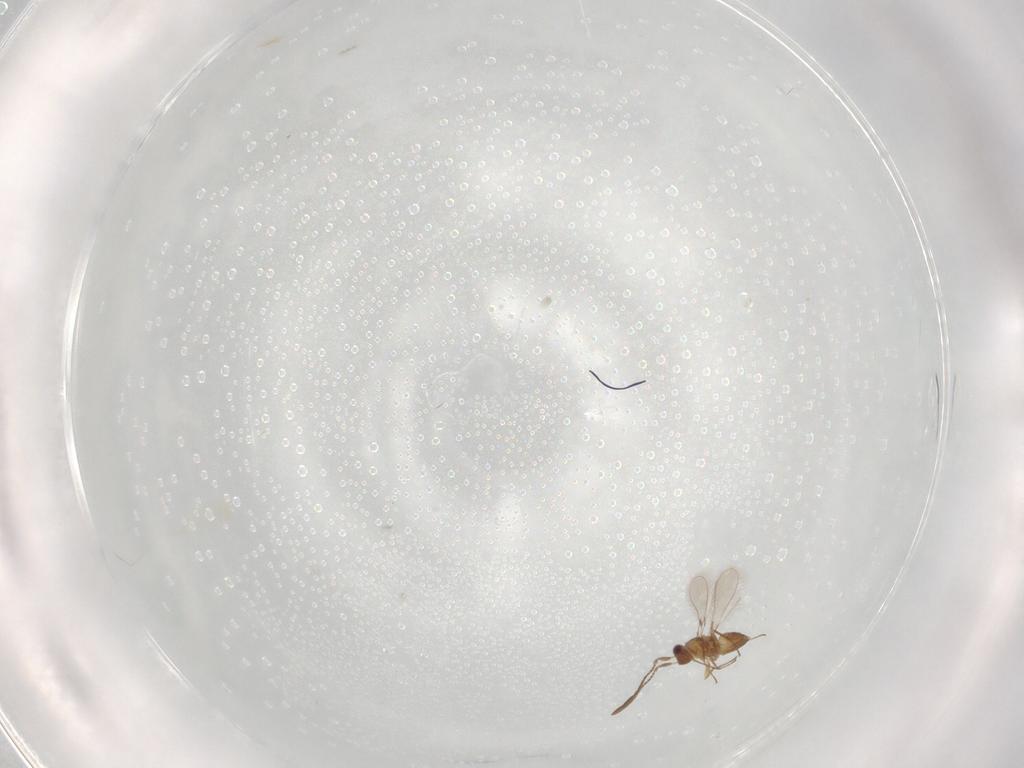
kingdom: Animalia
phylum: Arthropoda
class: Insecta
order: Hymenoptera
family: Mymaridae
